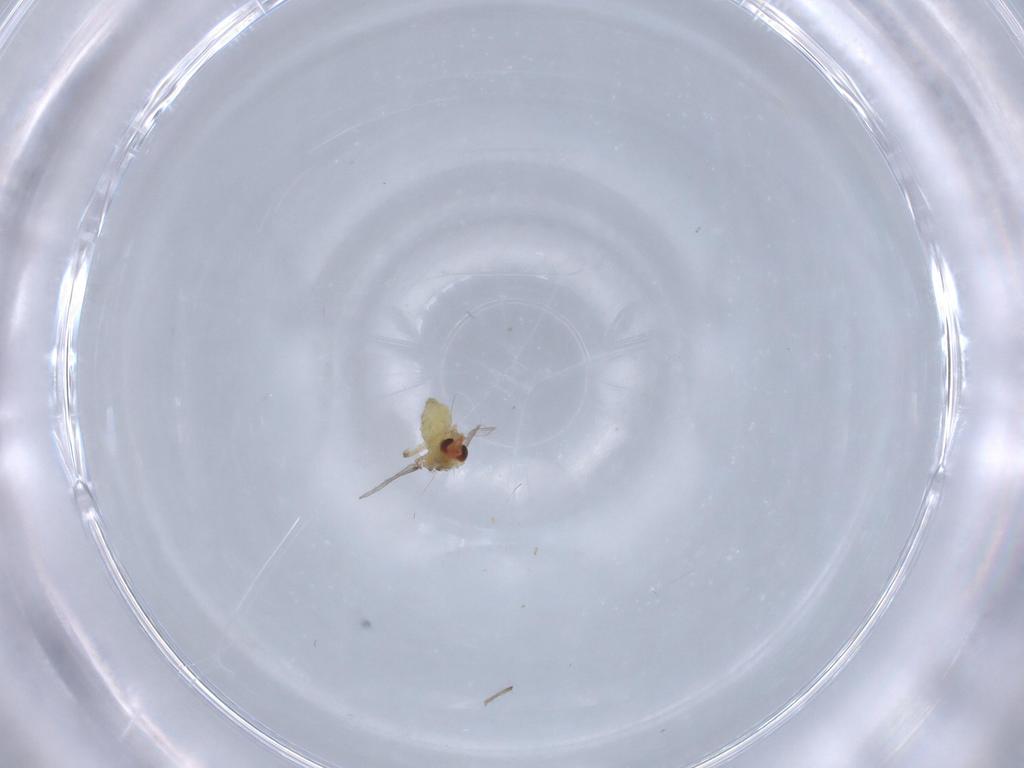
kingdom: Animalia
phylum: Arthropoda
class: Insecta
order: Diptera
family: Chironomidae
